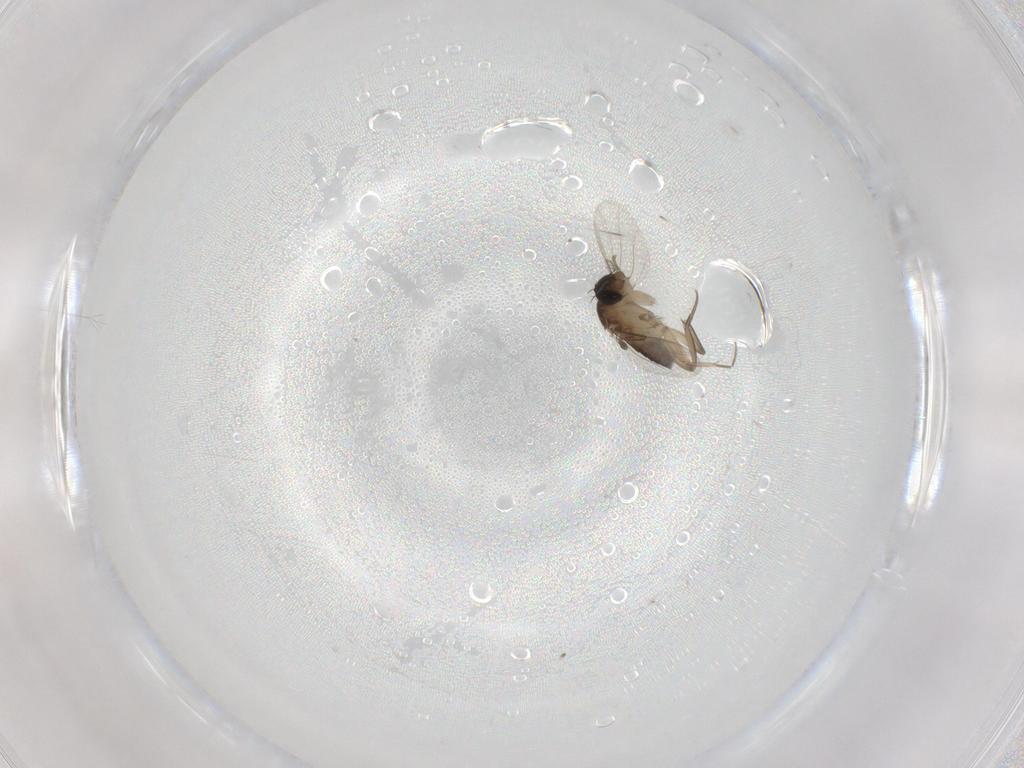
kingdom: Animalia
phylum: Arthropoda
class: Insecta
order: Diptera
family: Phoridae
